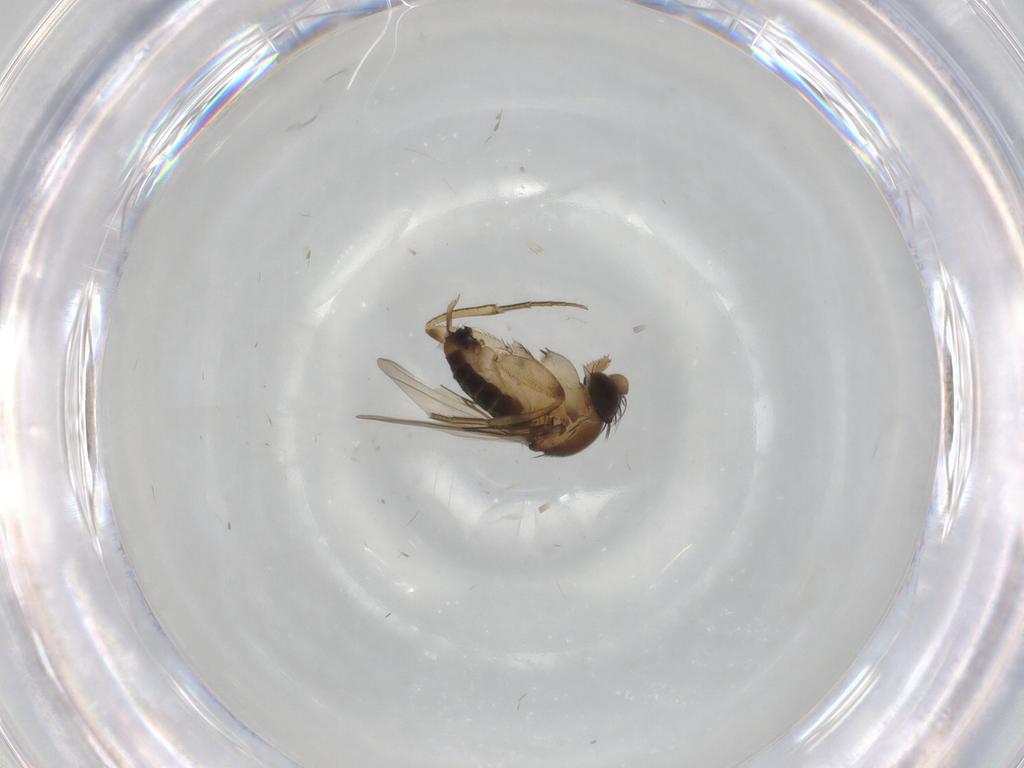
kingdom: Animalia
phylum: Arthropoda
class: Insecta
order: Diptera
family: Phoridae
